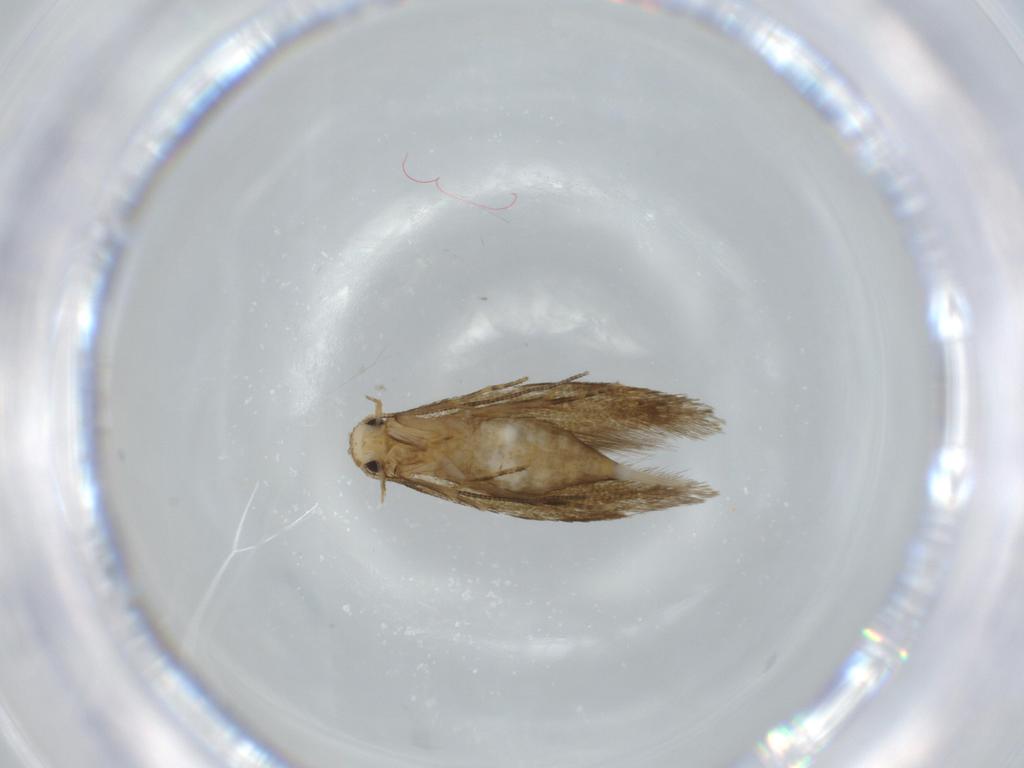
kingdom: Animalia
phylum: Arthropoda
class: Insecta
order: Lepidoptera
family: Tineidae
